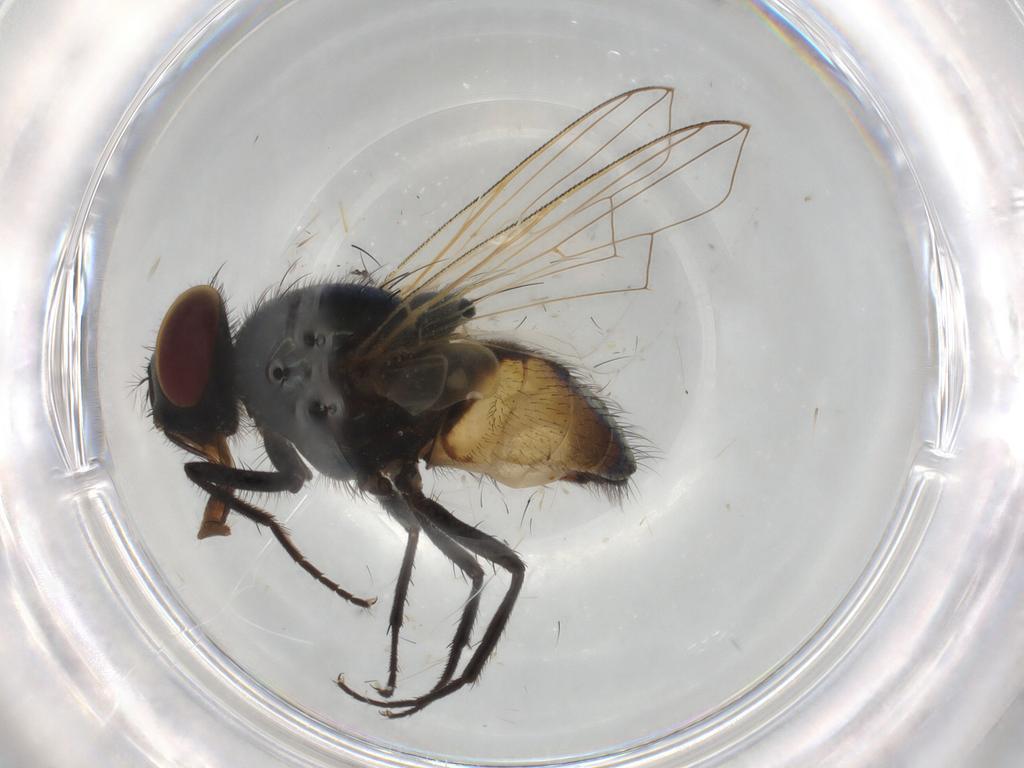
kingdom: Animalia
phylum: Arthropoda
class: Insecta
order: Diptera
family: Muscidae
